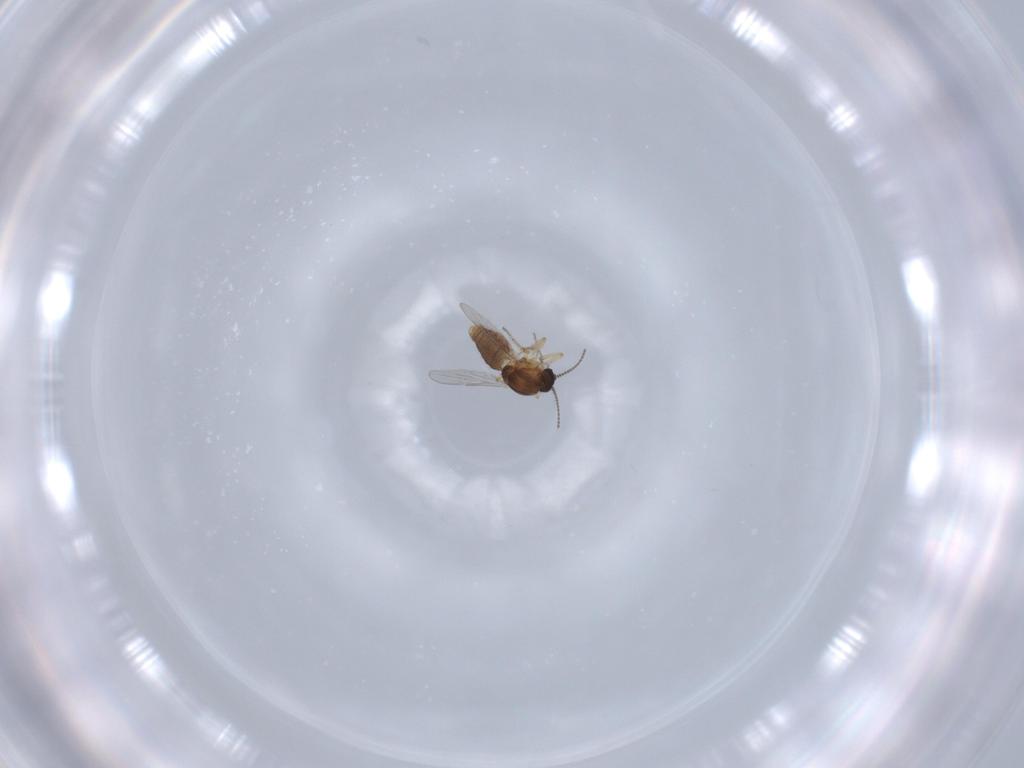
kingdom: Animalia
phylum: Arthropoda
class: Insecta
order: Diptera
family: Ceratopogonidae
